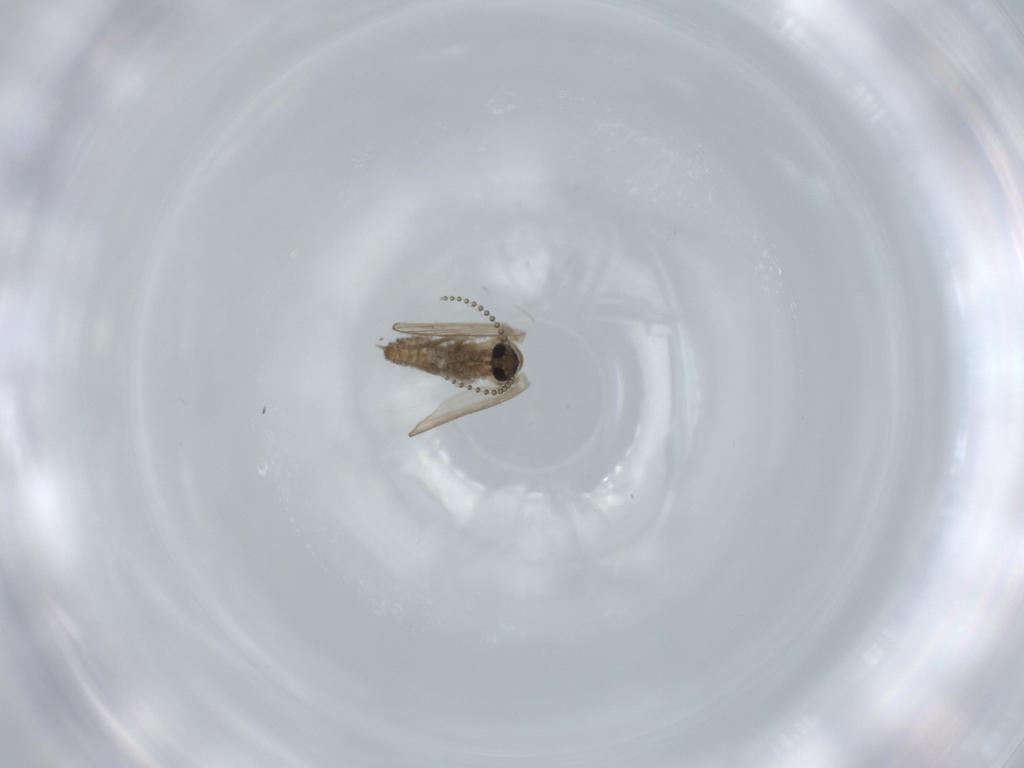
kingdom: Animalia
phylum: Arthropoda
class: Insecta
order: Diptera
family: Psychodidae
